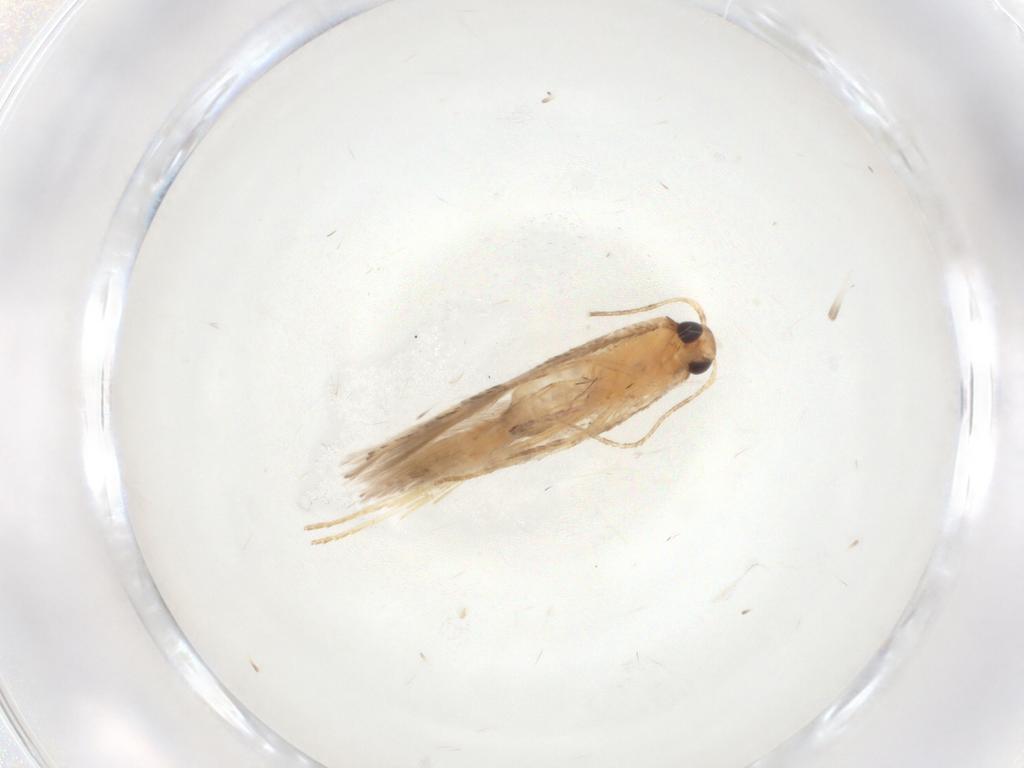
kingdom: Animalia
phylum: Arthropoda
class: Insecta
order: Lepidoptera
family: Gelechiidae
